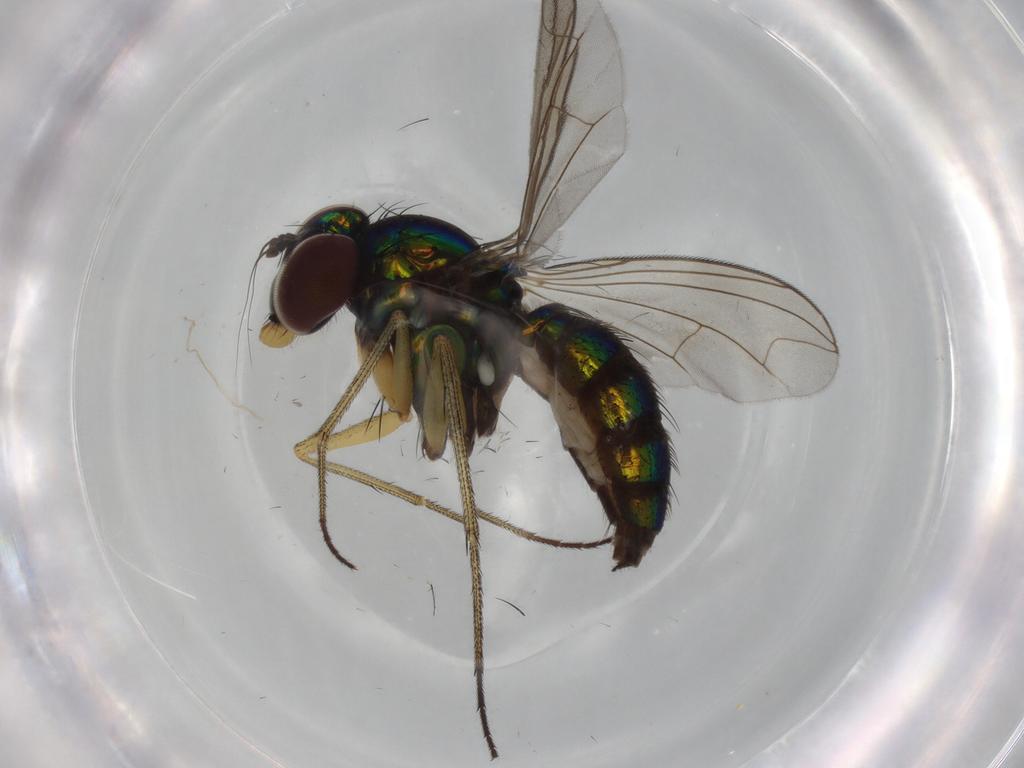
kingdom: Animalia
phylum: Arthropoda
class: Insecta
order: Diptera
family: Dolichopodidae
